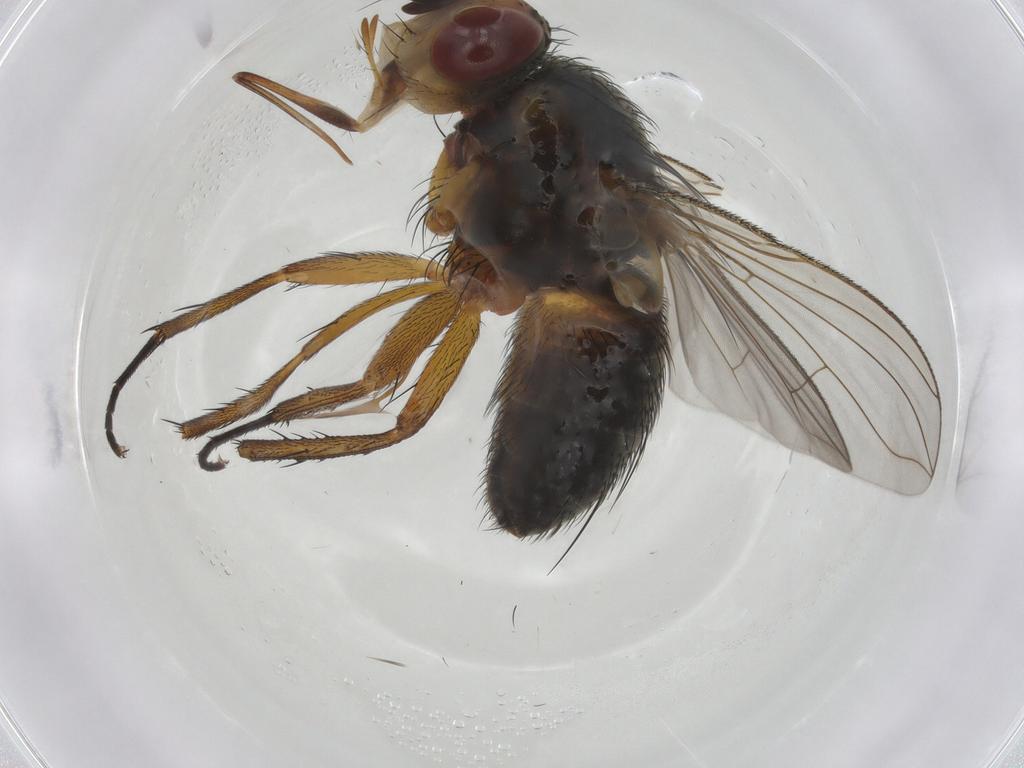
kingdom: Animalia
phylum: Arthropoda
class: Insecta
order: Diptera
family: Tachinidae
